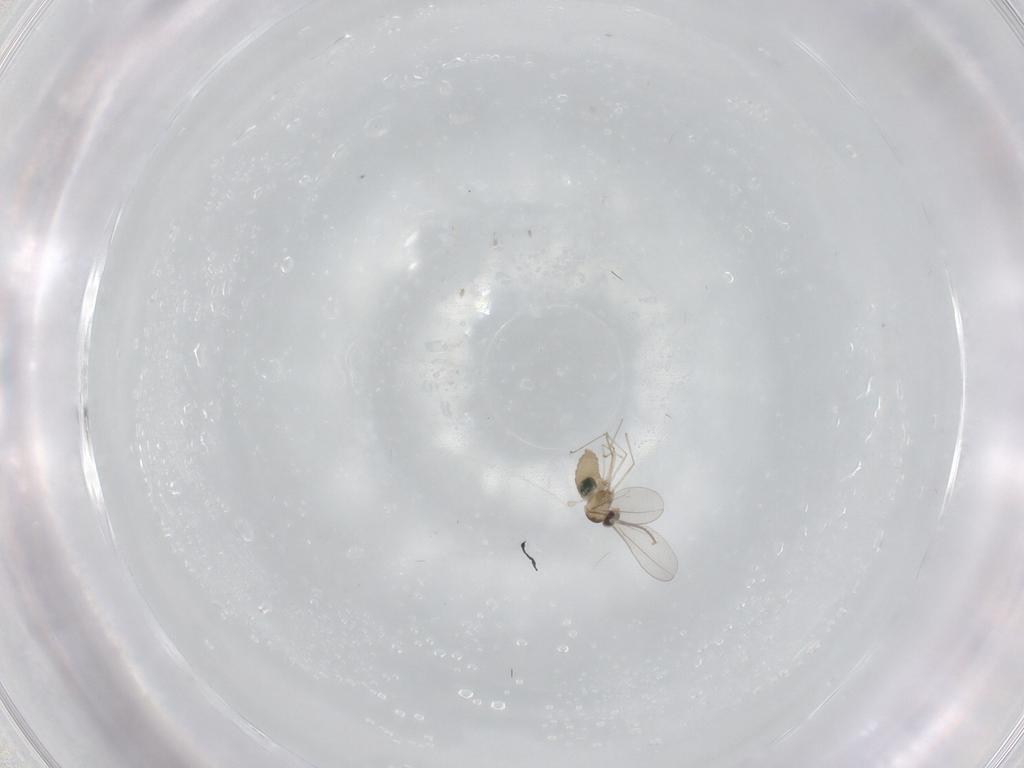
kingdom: Animalia
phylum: Arthropoda
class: Insecta
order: Diptera
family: Cecidomyiidae
